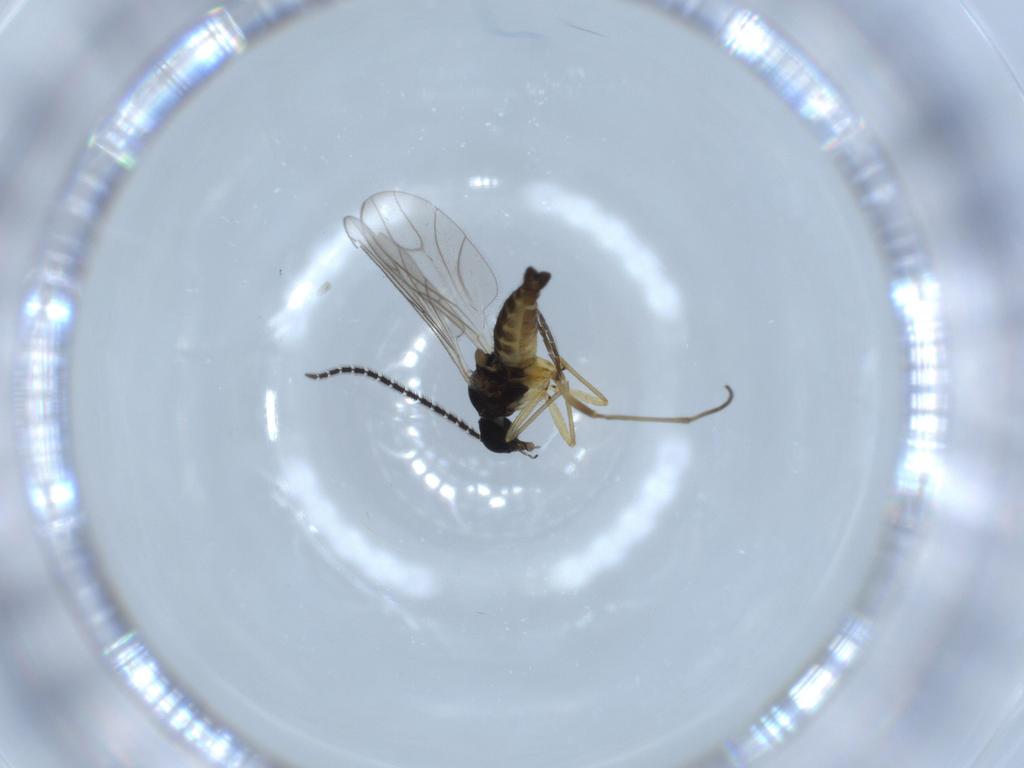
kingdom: Animalia
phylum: Arthropoda
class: Insecta
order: Diptera
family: Sciaridae
